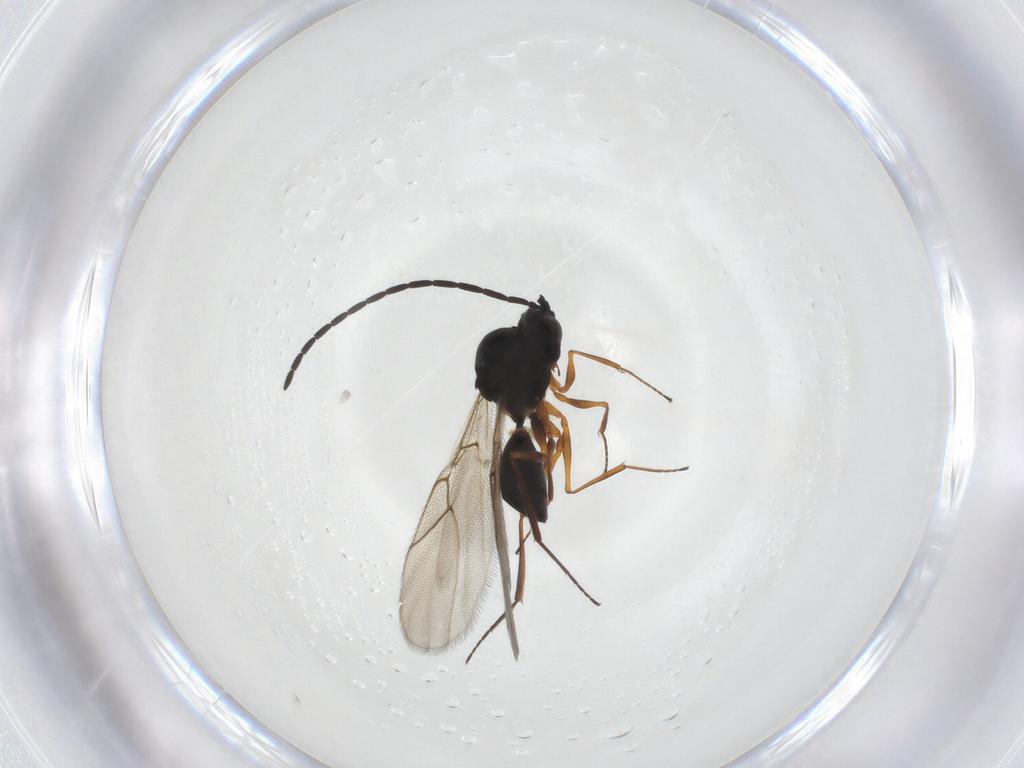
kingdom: Animalia
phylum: Arthropoda
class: Insecta
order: Hymenoptera
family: Figitidae
